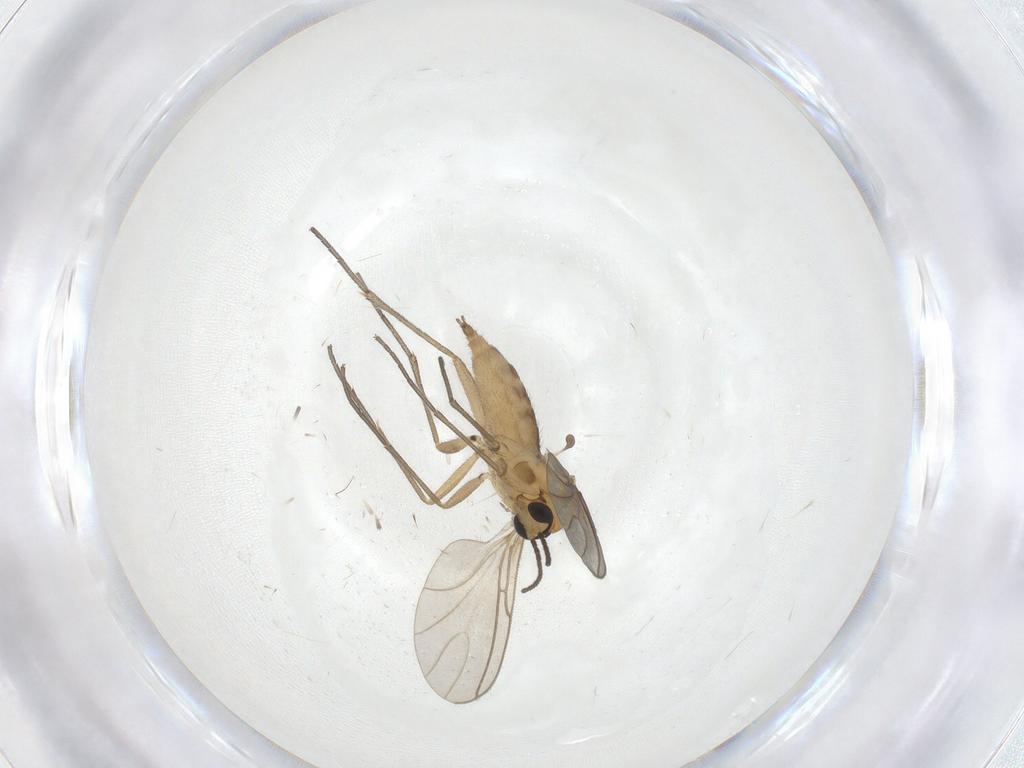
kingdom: Animalia
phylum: Arthropoda
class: Insecta
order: Diptera
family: Sciaridae
